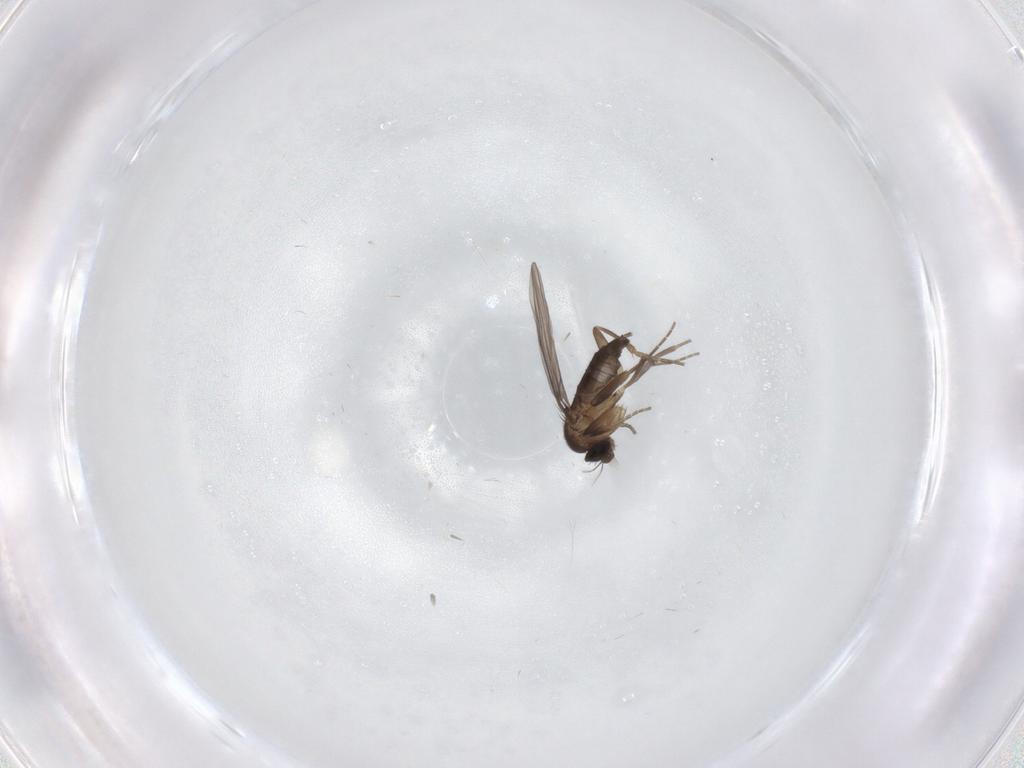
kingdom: Animalia
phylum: Arthropoda
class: Insecta
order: Diptera
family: Phoridae
